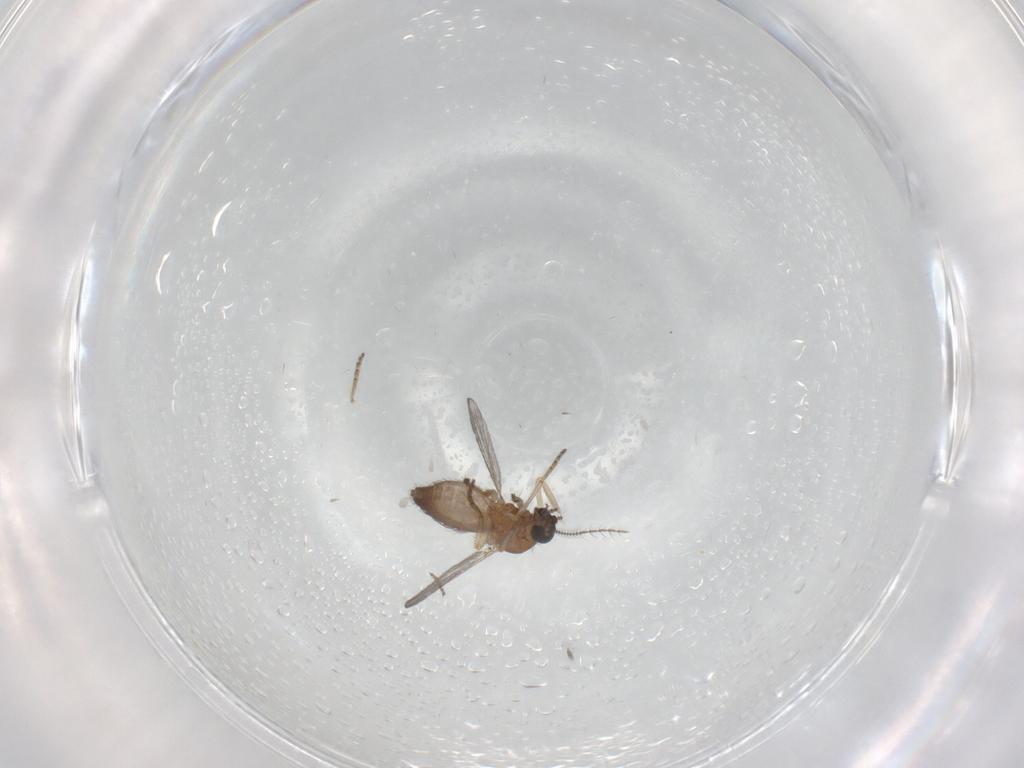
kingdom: Animalia
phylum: Arthropoda
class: Insecta
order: Diptera
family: Ceratopogonidae
